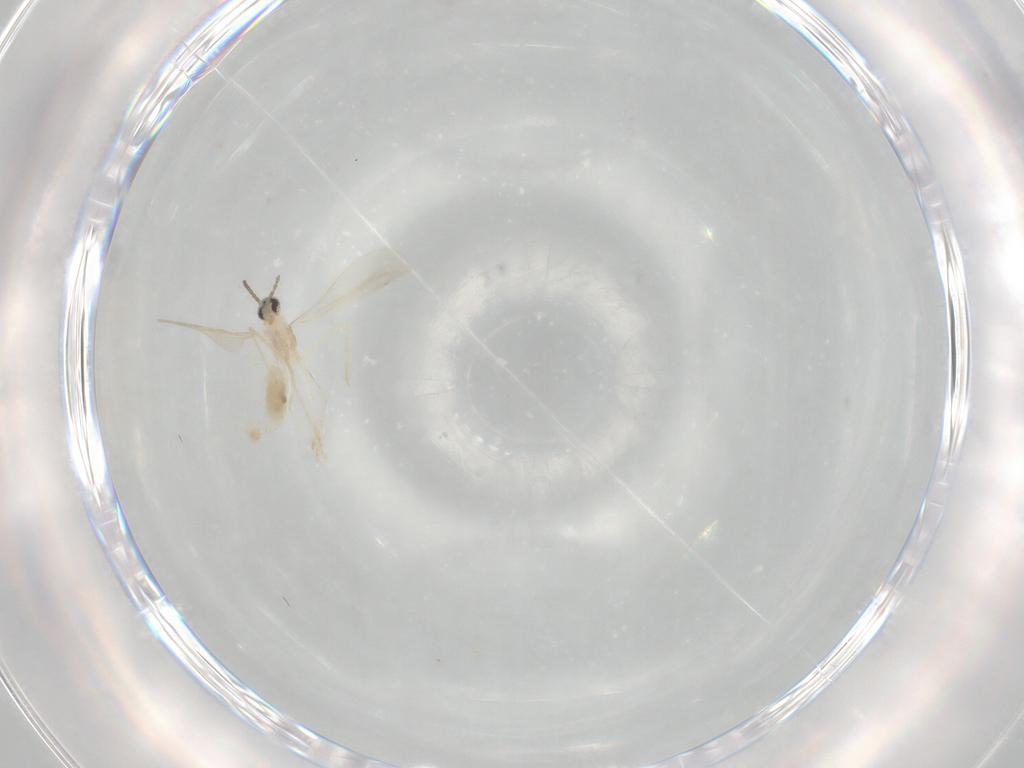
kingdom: Animalia
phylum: Arthropoda
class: Insecta
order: Diptera
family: Cecidomyiidae
